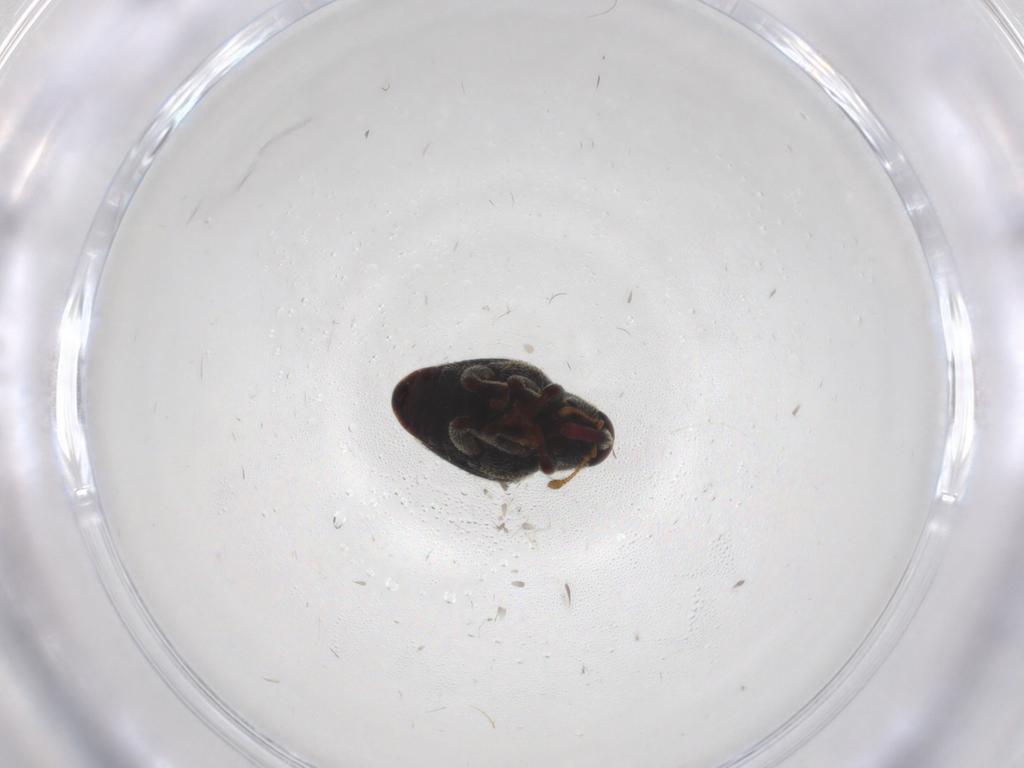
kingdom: Animalia
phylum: Arthropoda
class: Insecta
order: Coleoptera
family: Curculionidae
